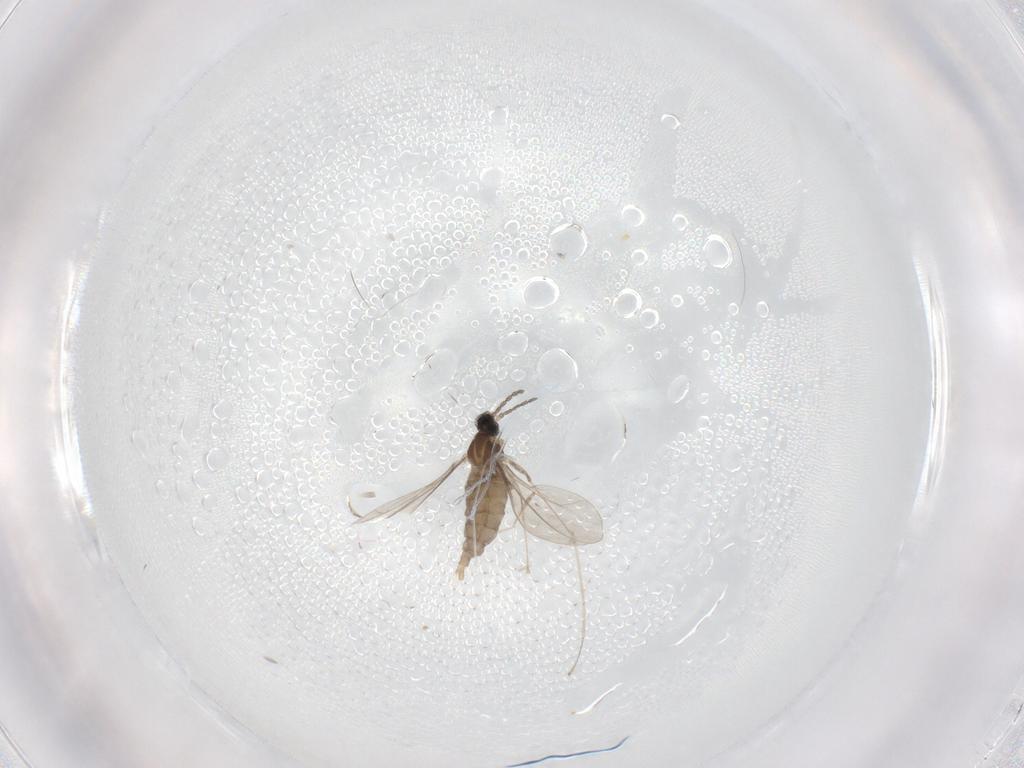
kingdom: Animalia
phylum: Arthropoda
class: Insecta
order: Diptera
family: Cecidomyiidae
